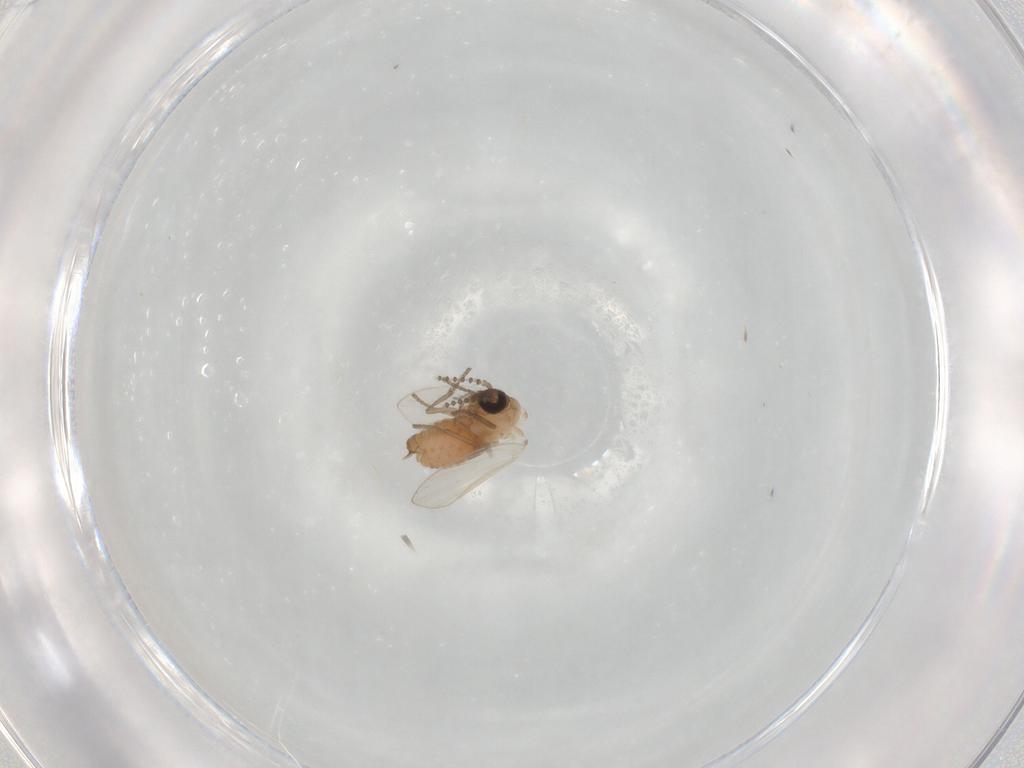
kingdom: Animalia
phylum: Arthropoda
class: Insecta
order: Diptera
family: Psychodidae
